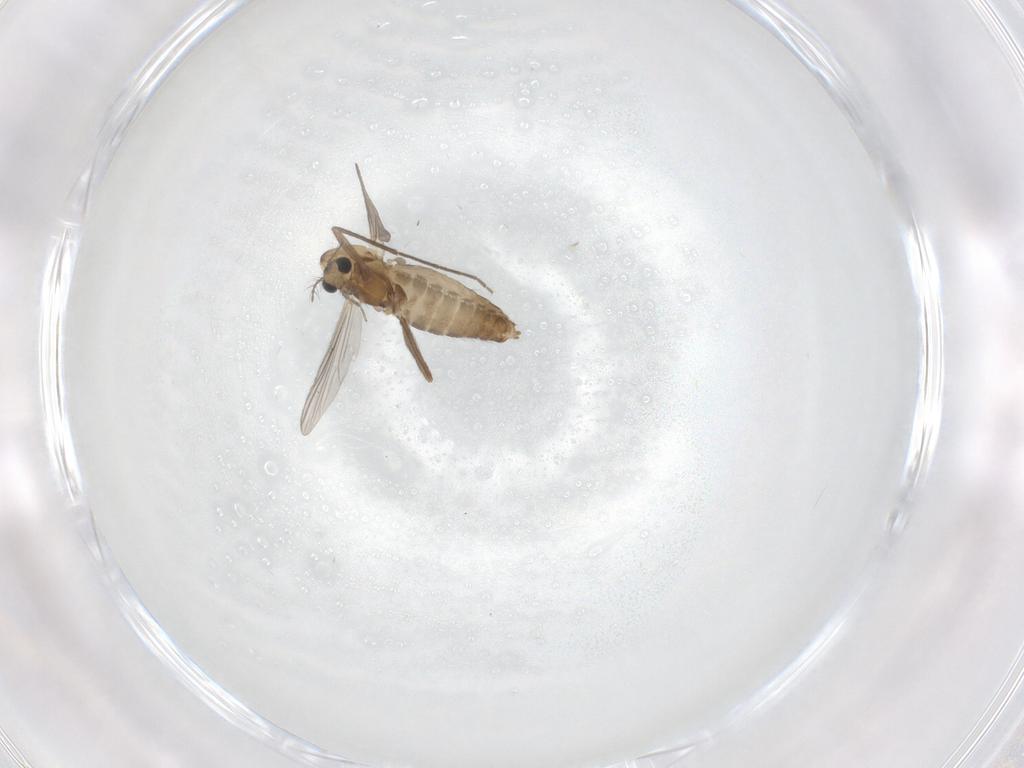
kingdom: Animalia
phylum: Arthropoda
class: Insecta
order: Diptera
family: Chironomidae
